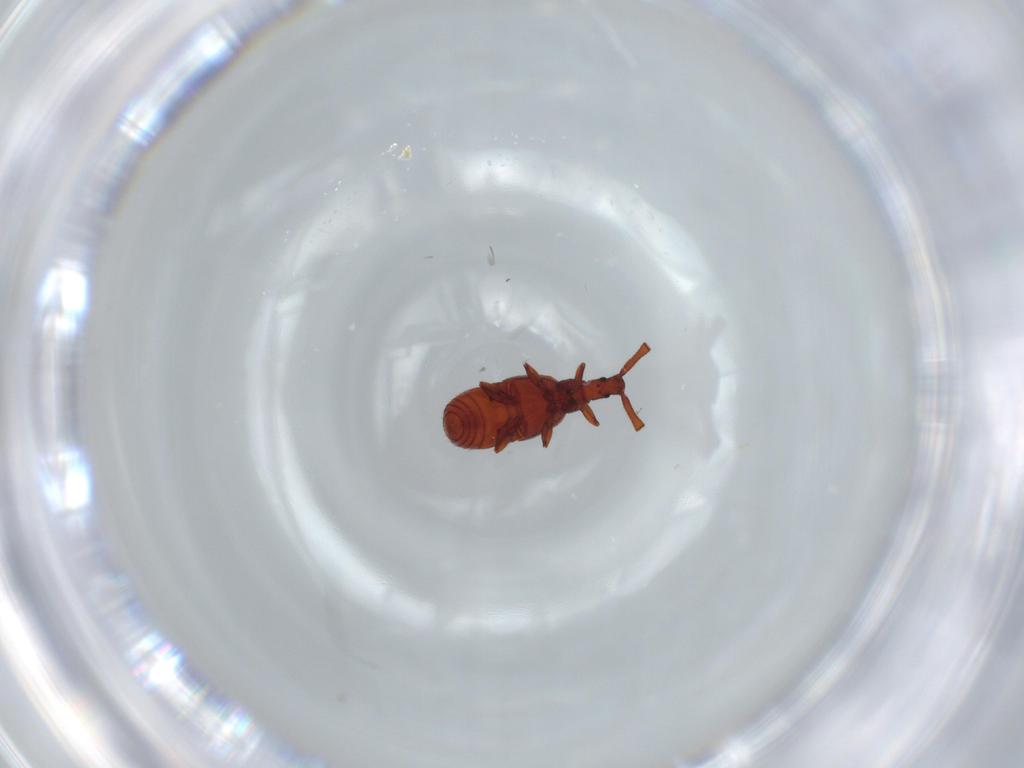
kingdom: Animalia
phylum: Arthropoda
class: Insecta
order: Coleoptera
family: Staphylinidae
